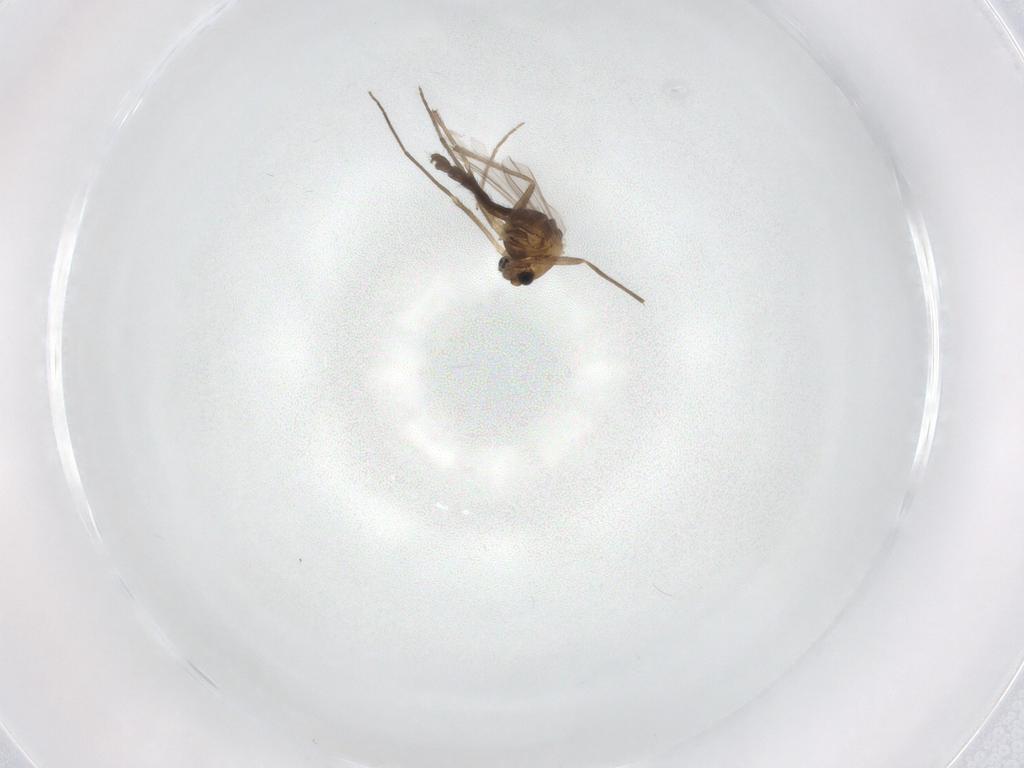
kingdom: Animalia
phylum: Arthropoda
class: Insecta
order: Diptera
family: Chironomidae
